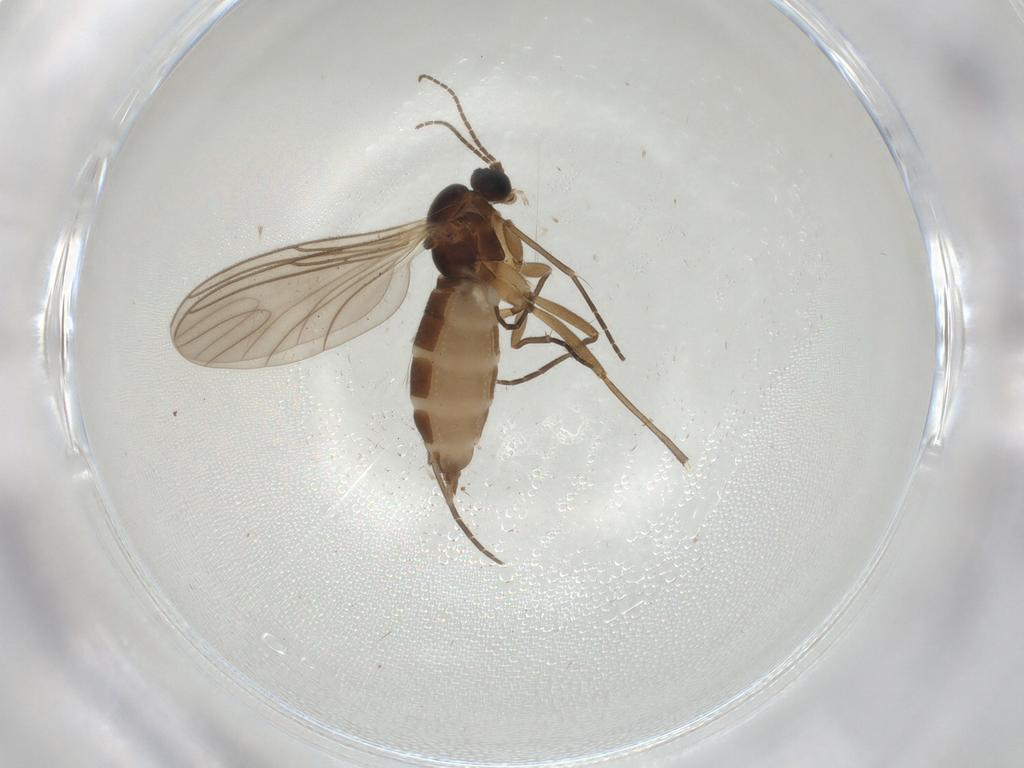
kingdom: Animalia
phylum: Arthropoda
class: Insecta
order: Diptera
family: Sciaridae
